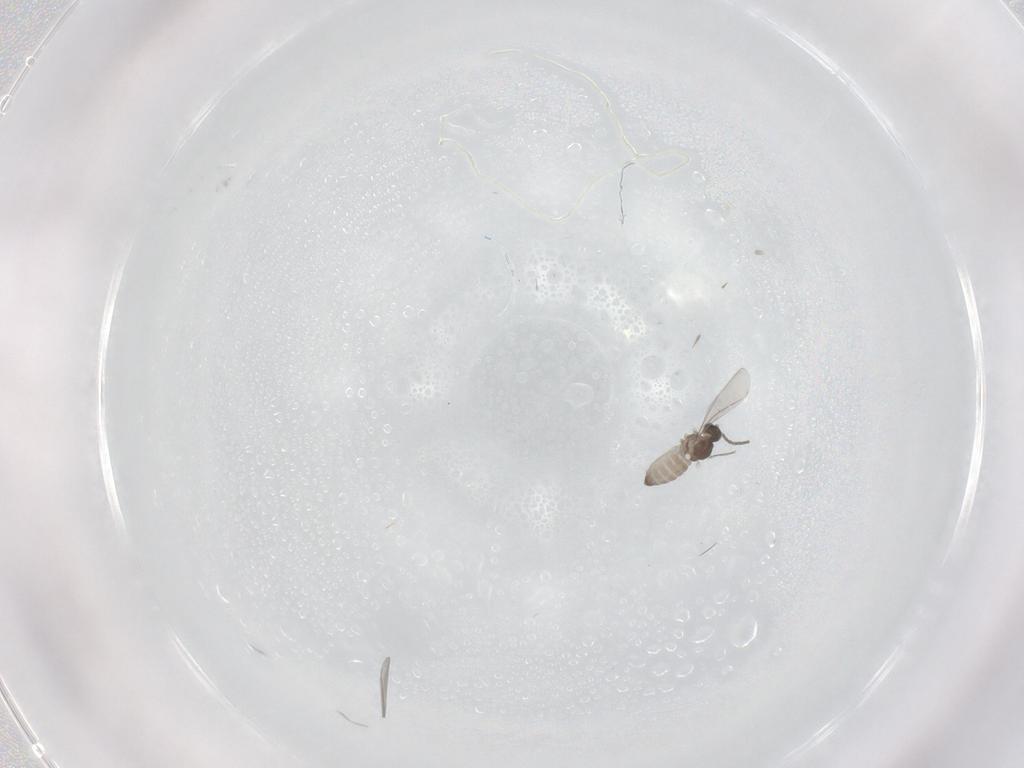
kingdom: Animalia
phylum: Arthropoda
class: Insecta
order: Diptera
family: Cecidomyiidae
